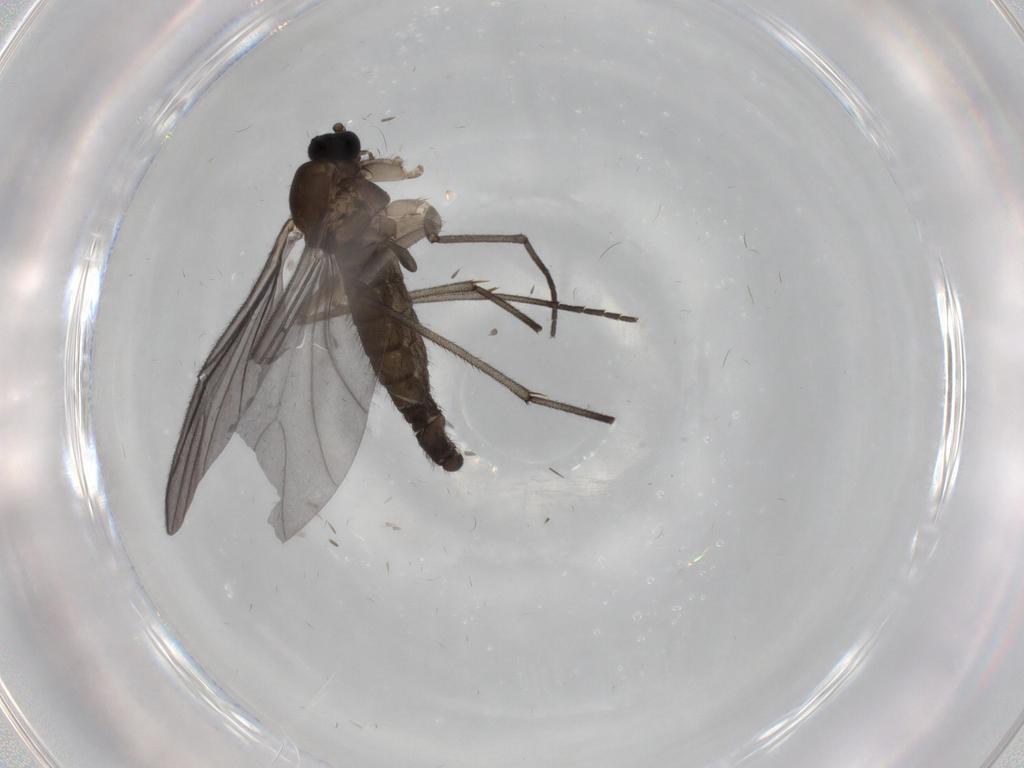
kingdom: Animalia
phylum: Arthropoda
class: Insecta
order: Diptera
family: Sciaridae
